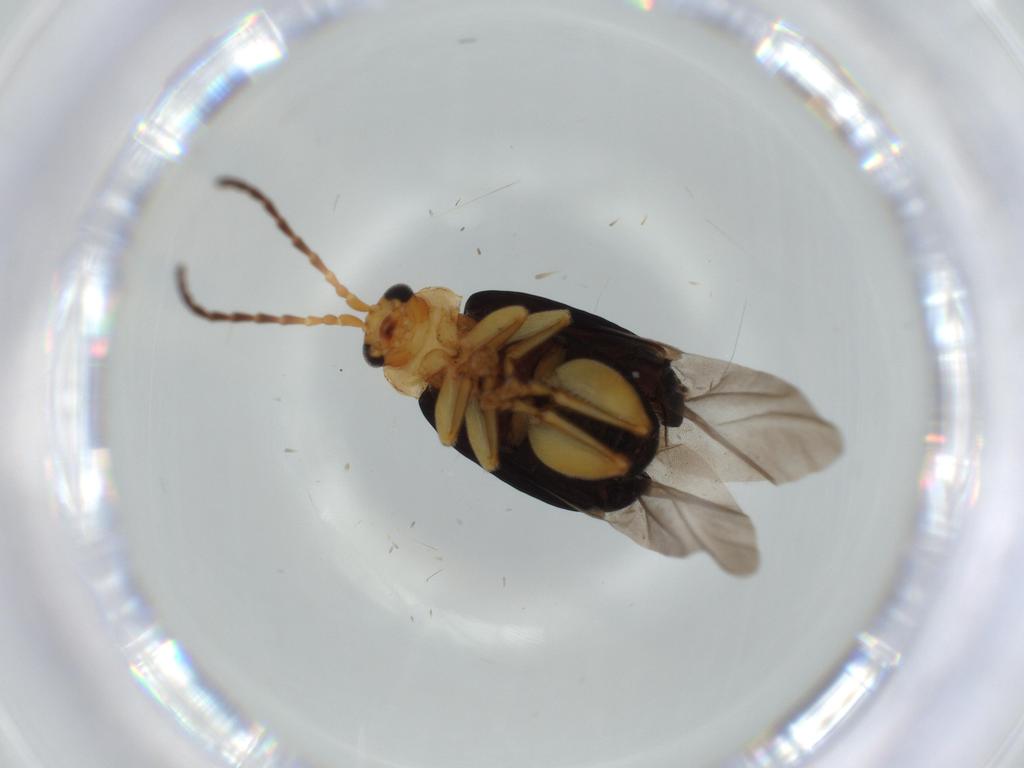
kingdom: Animalia
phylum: Arthropoda
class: Insecta
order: Coleoptera
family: Chrysomelidae
